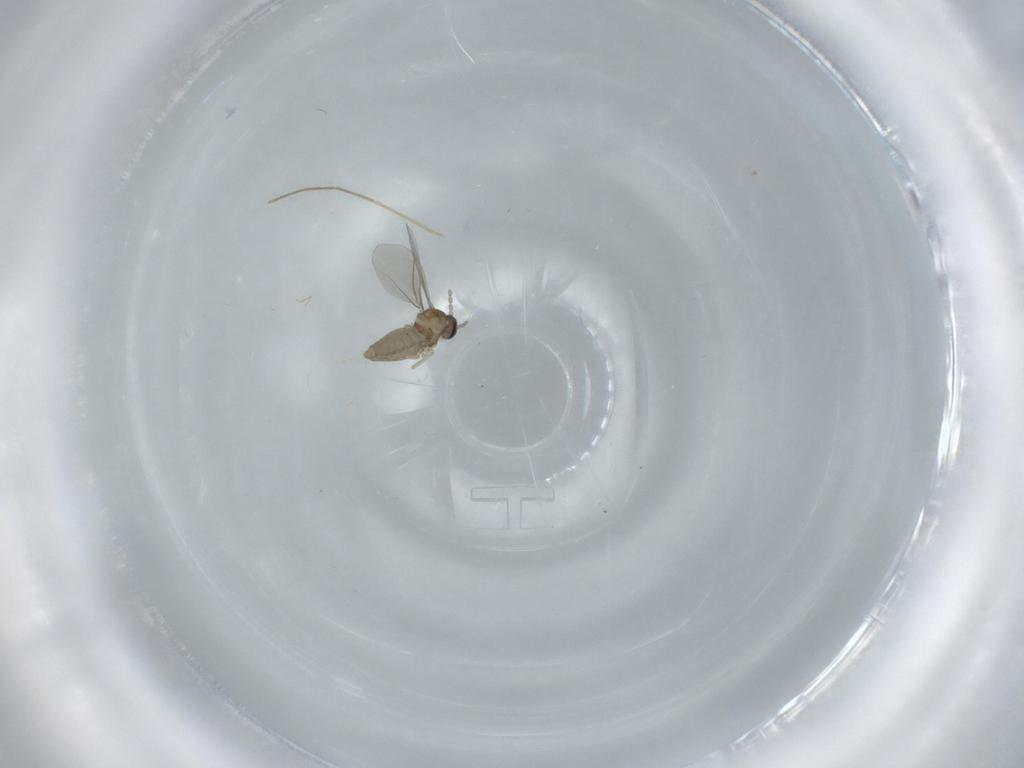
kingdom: Animalia
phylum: Arthropoda
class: Insecta
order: Diptera
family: Chironomidae
